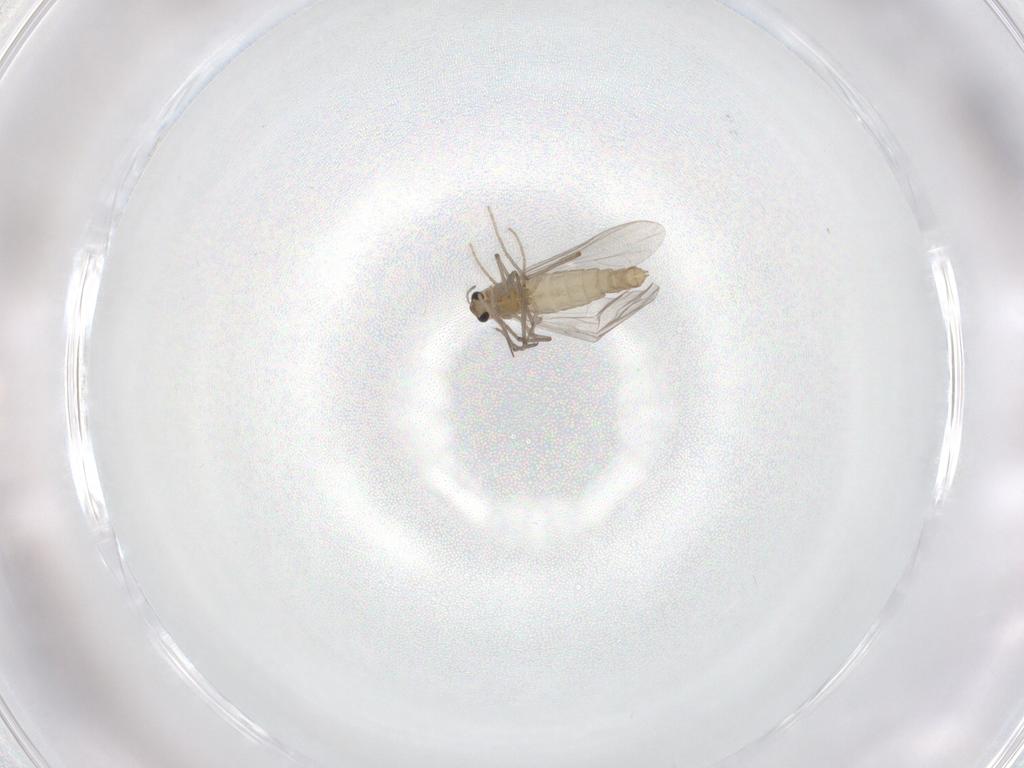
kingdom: Animalia
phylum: Arthropoda
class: Insecta
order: Diptera
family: Chironomidae
